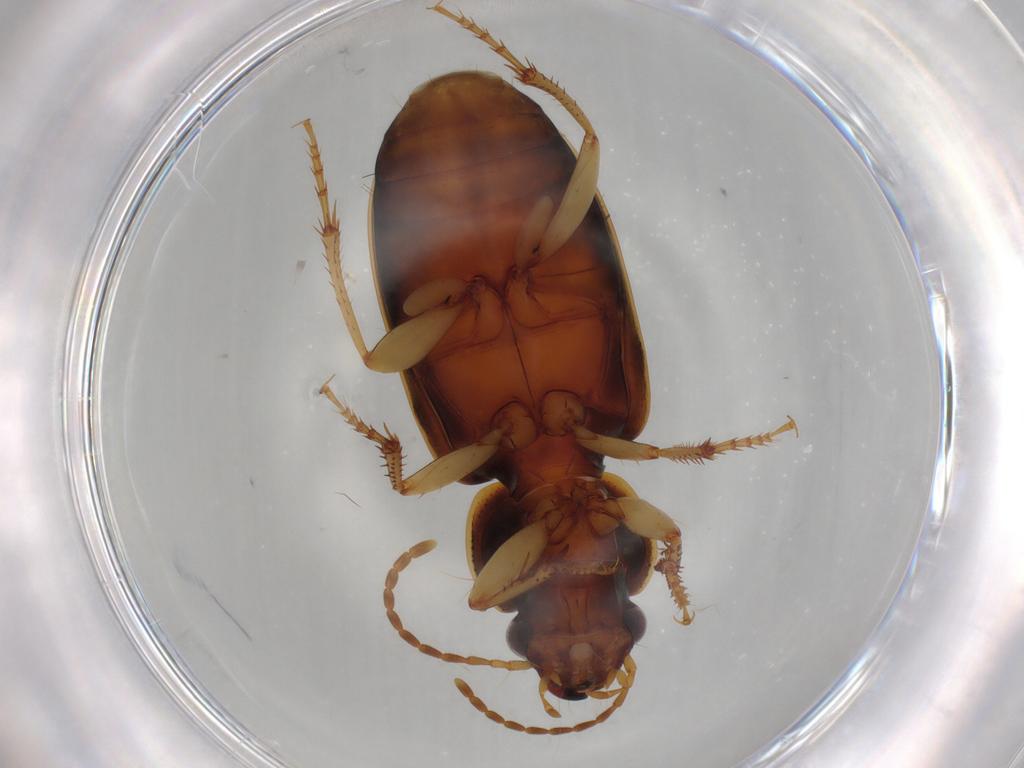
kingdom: Animalia
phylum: Arthropoda
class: Insecta
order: Coleoptera
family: Carabidae
